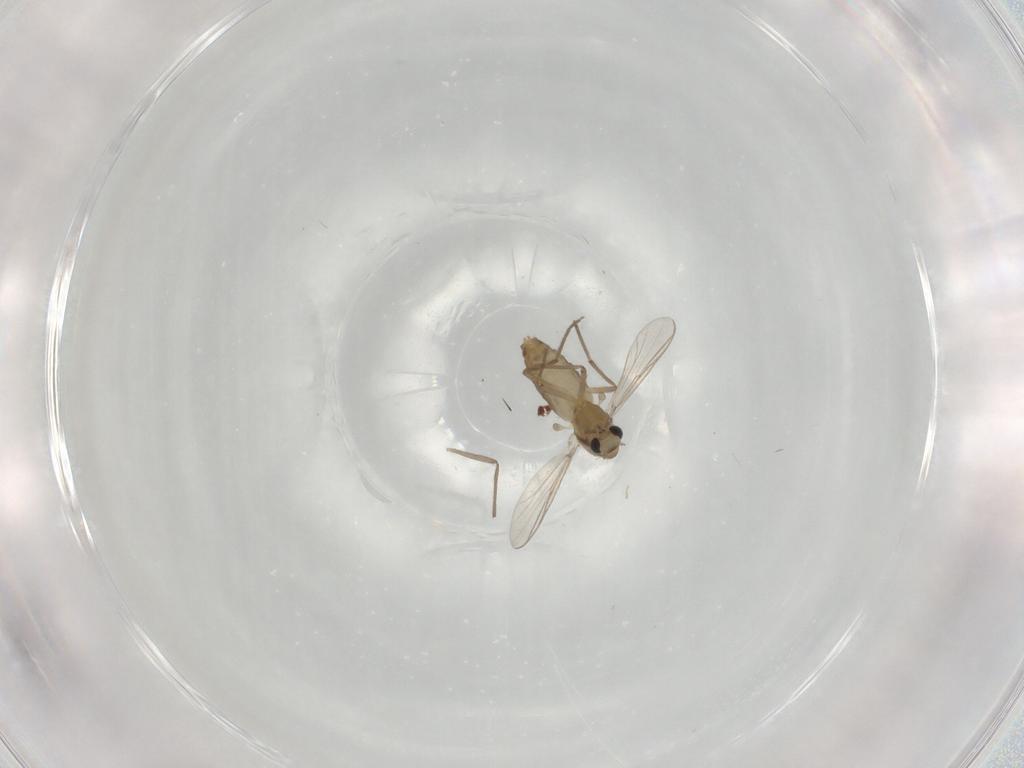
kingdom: Animalia
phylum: Arthropoda
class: Insecta
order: Diptera
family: Chironomidae
